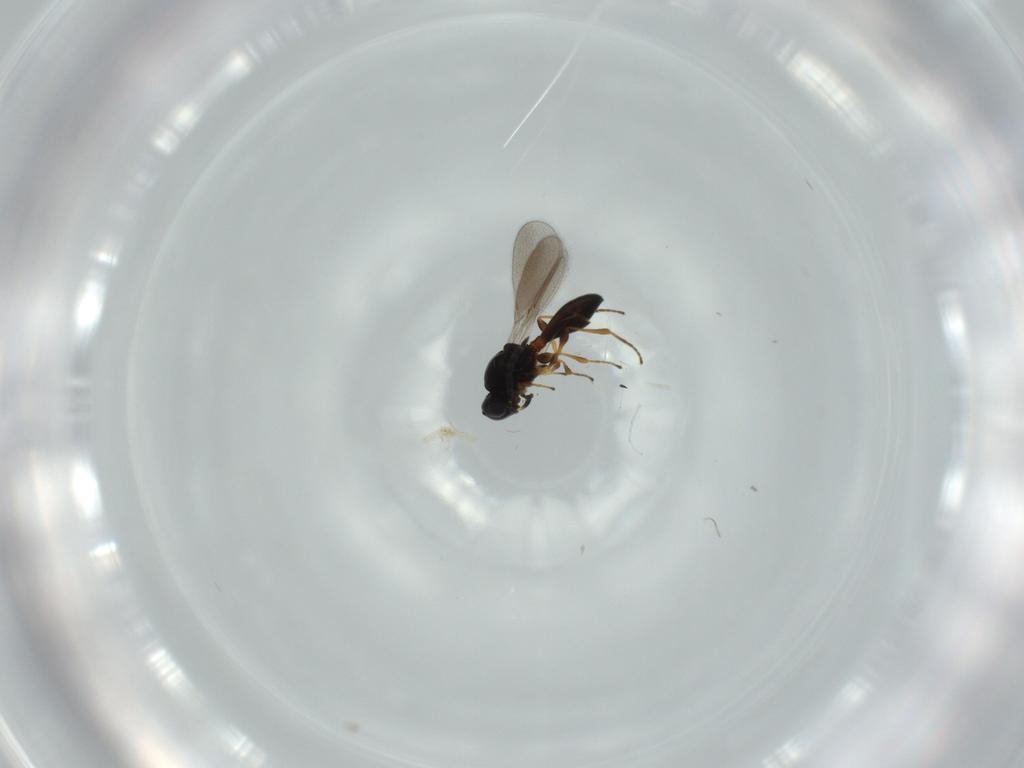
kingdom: Animalia
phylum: Arthropoda
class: Insecta
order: Hymenoptera
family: Platygastridae
